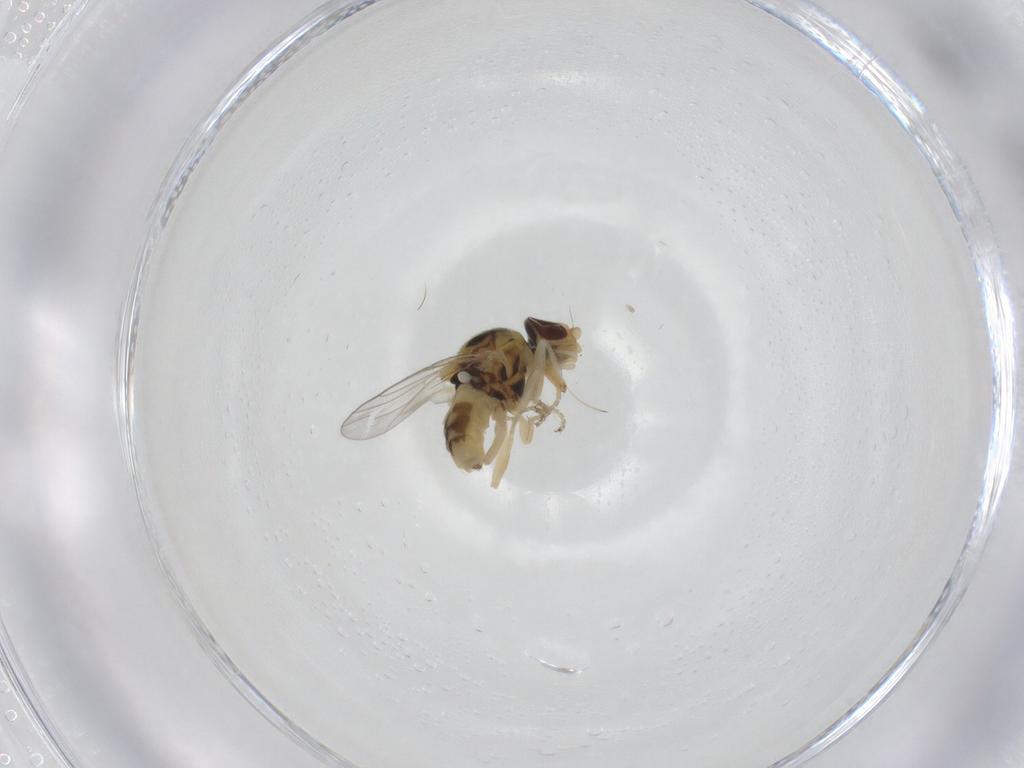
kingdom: Animalia
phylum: Arthropoda
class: Insecta
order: Diptera
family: Chloropidae
